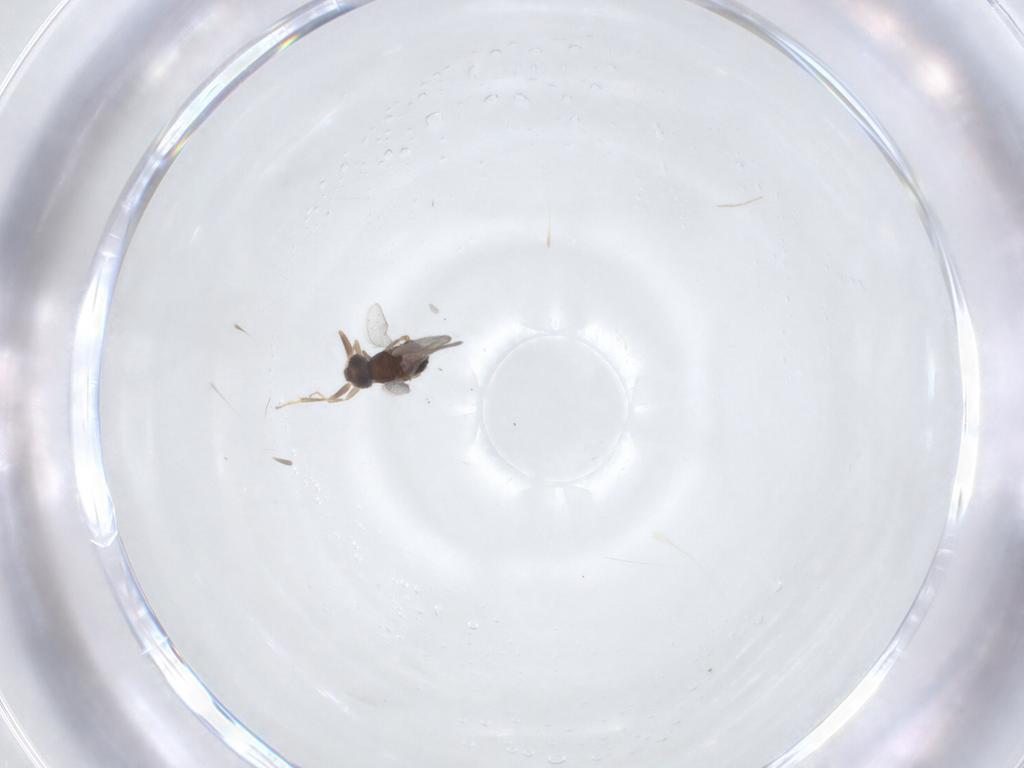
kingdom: Animalia
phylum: Arthropoda
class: Insecta
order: Hymenoptera
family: Bethylidae
